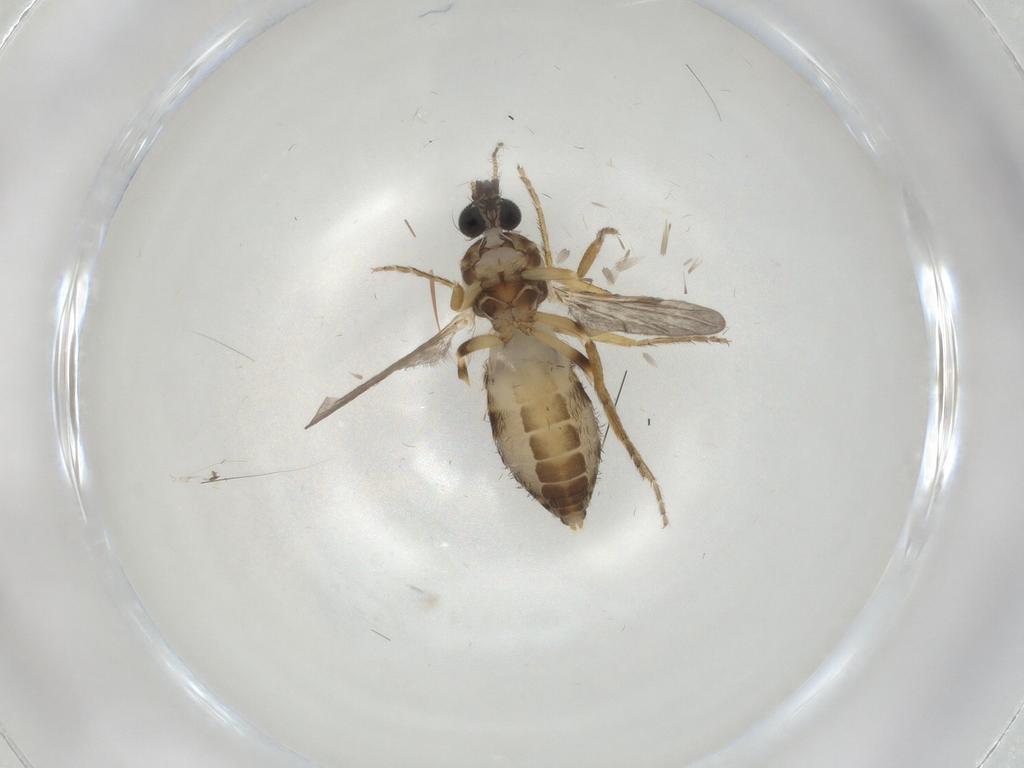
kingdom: Animalia
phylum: Arthropoda
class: Insecta
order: Diptera
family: Ceratopogonidae
